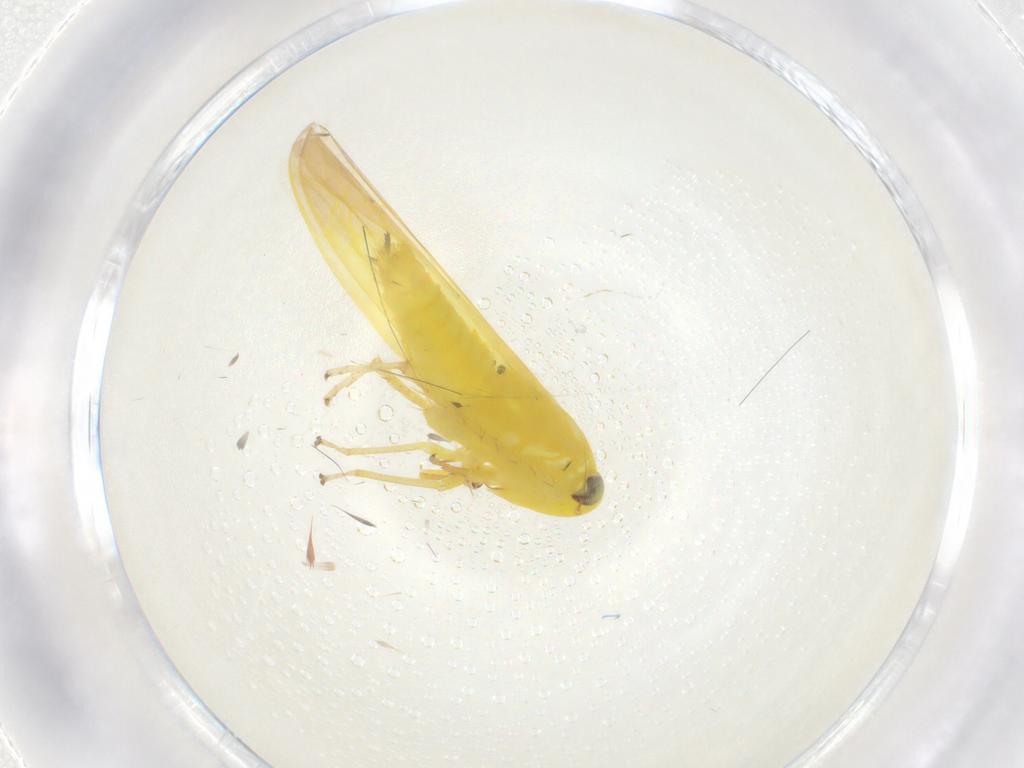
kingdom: Animalia
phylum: Arthropoda
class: Insecta
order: Hemiptera
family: Cicadellidae
